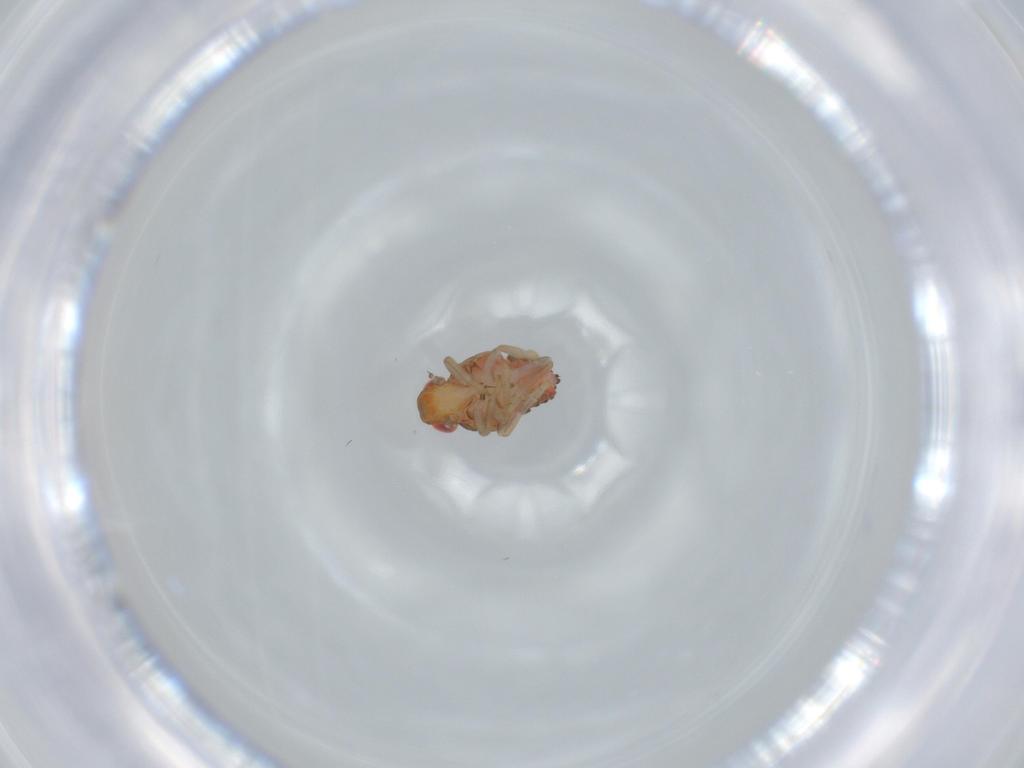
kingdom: Animalia
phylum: Arthropoda
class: Insecta
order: Hemiptera
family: Issidae
